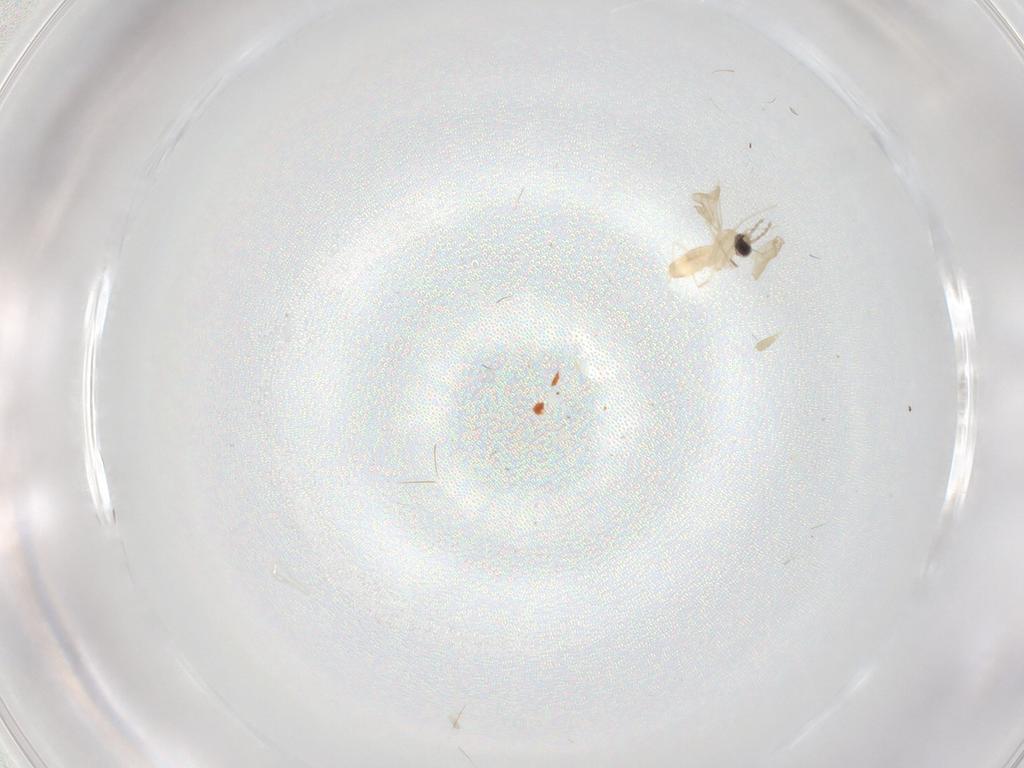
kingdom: Animalia
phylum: Arthropoda
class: Insecta
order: Diptera
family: Cecidomyiidae
